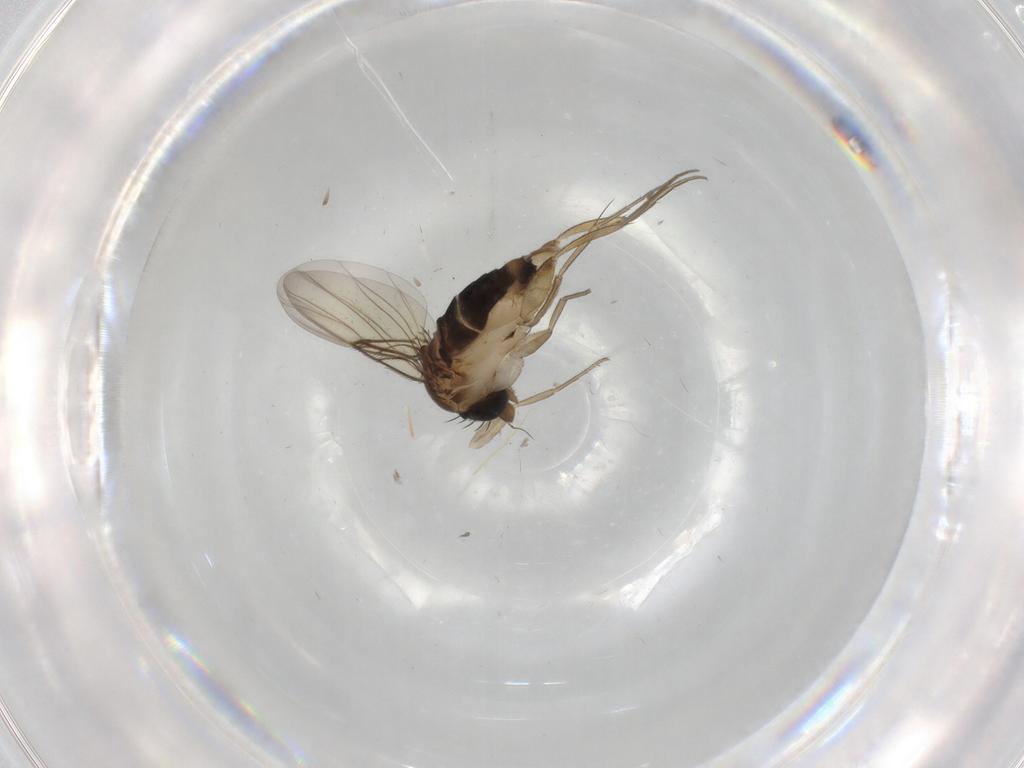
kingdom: Animalia
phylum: Arthropoda
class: Insecta
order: Diptera
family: Phoridae
